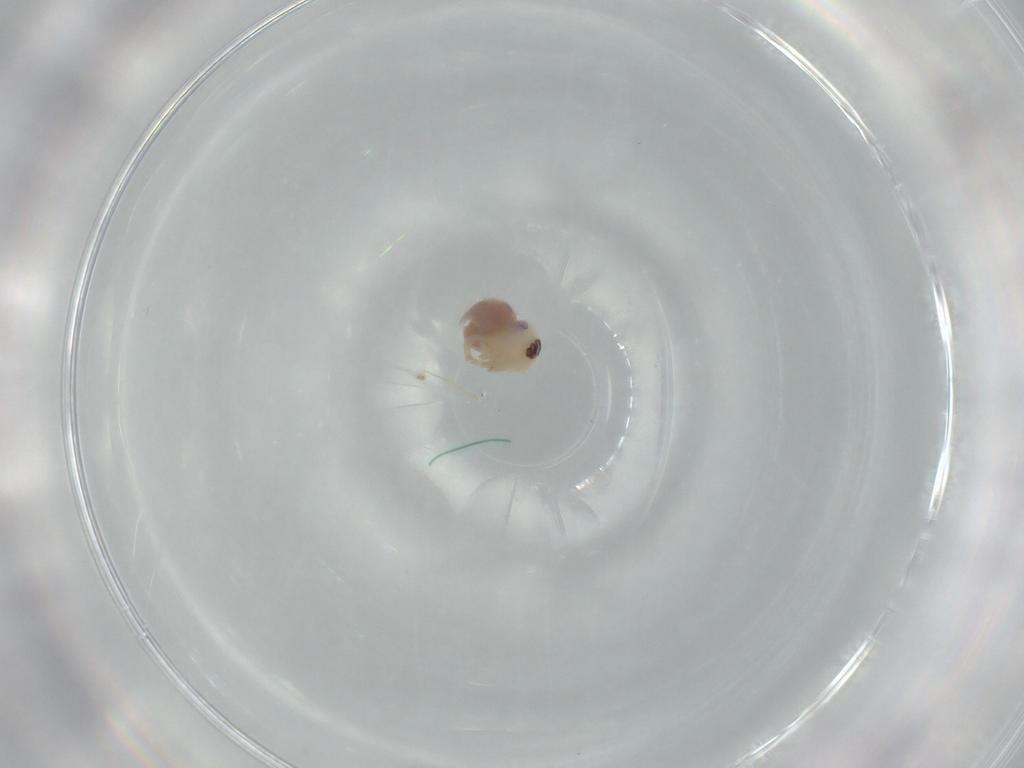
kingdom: Animalia
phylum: Arthropoda
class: Arachnida
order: Araneae
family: Pholcidae
